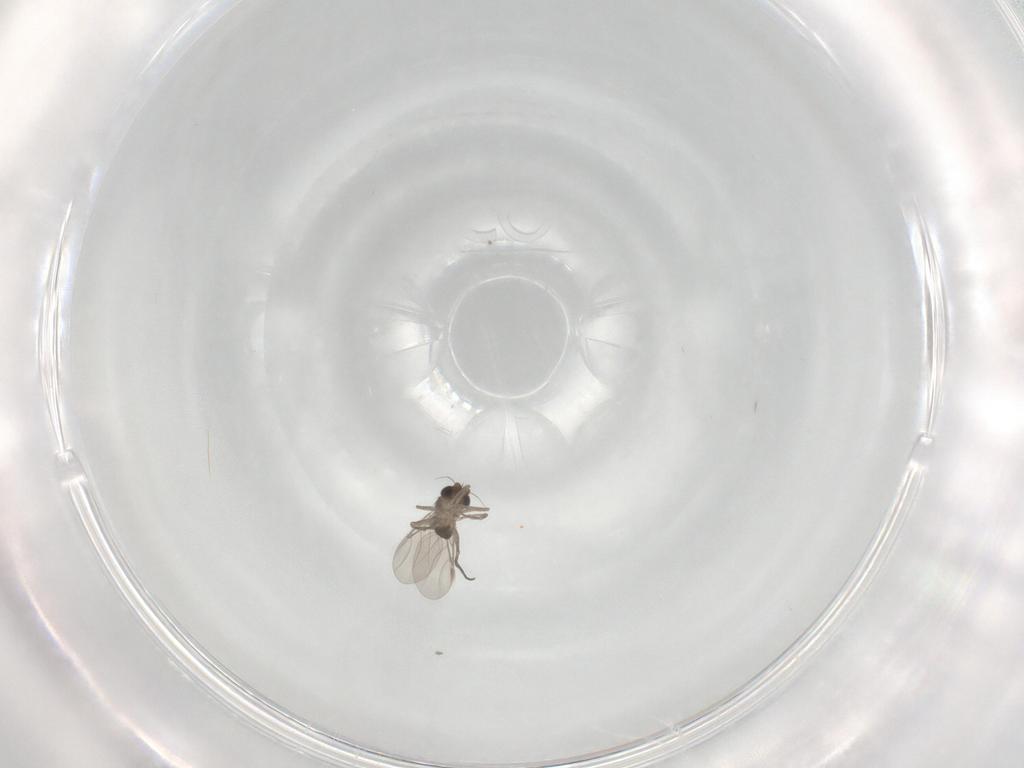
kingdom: Animalia
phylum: Arthropoda
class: Insecta
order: Diptera
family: Phoridae
